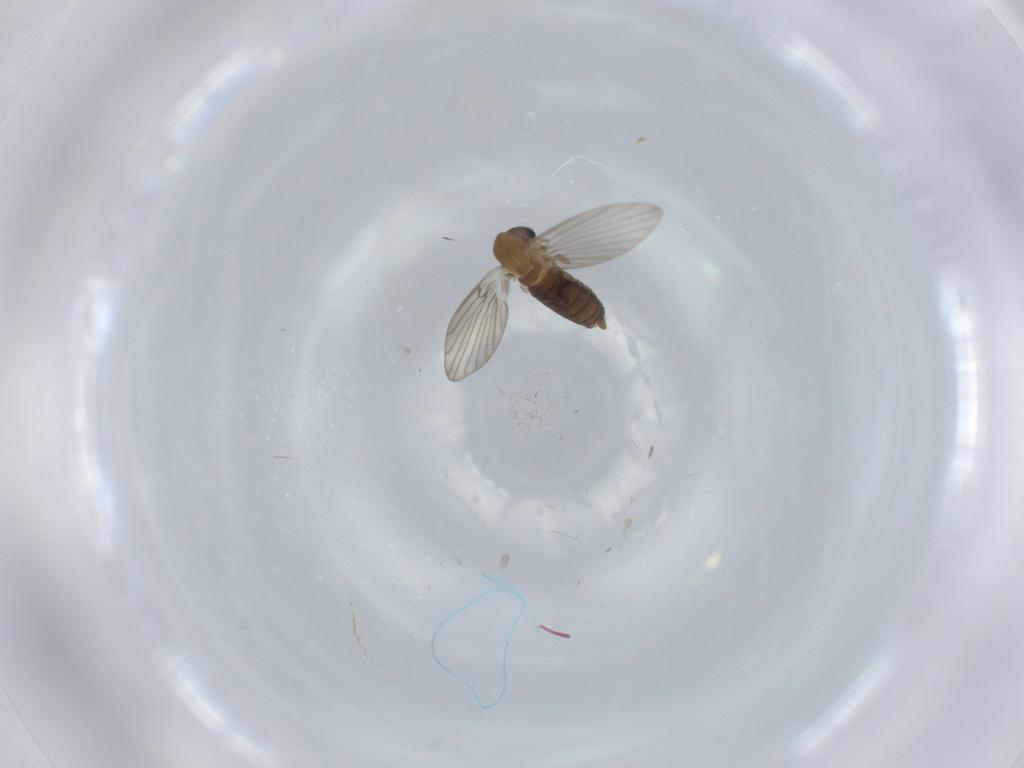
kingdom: Animalia
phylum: Arthropoda
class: Insecta
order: Diptera
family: Psychodidae
